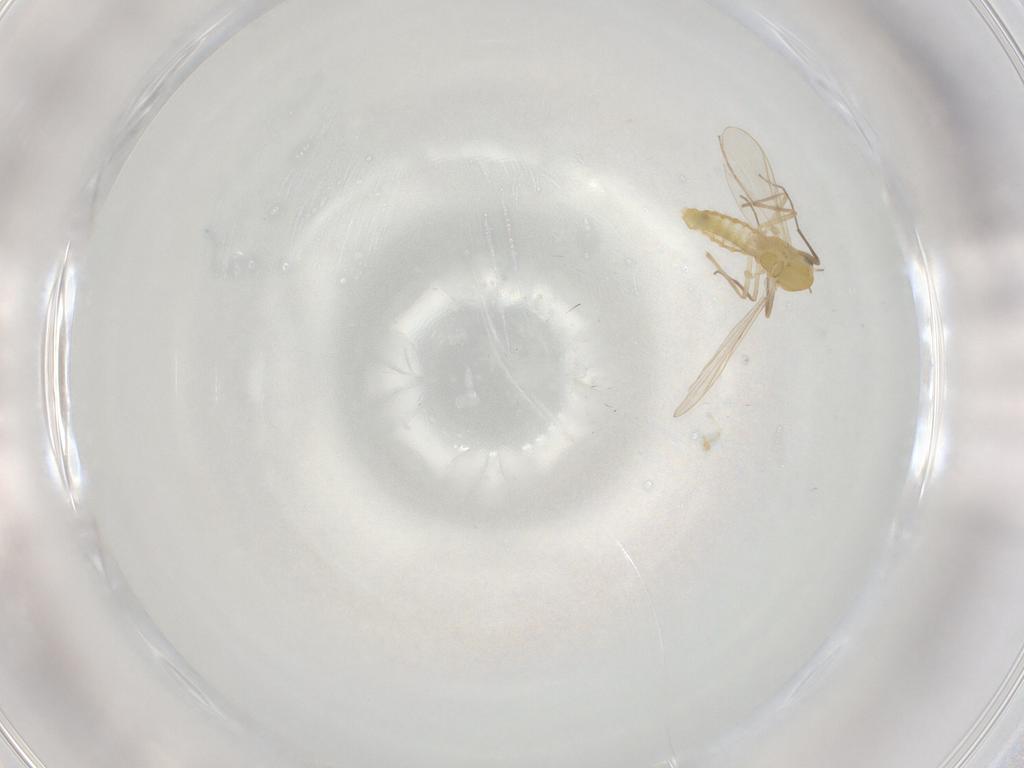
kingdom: Animalia
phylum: Arthropoda
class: Insecta
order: Diptera
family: Chironomidae
